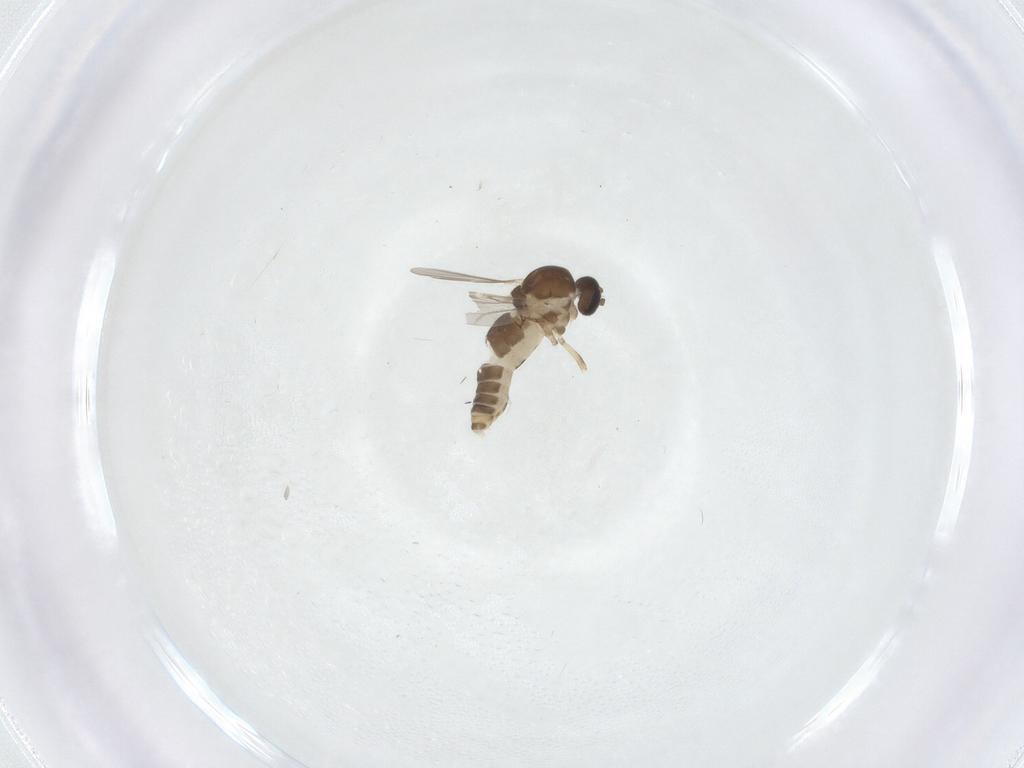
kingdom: Animalia
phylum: Arthropoda
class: Insecta
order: Diptera
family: Ceratopogonidae
